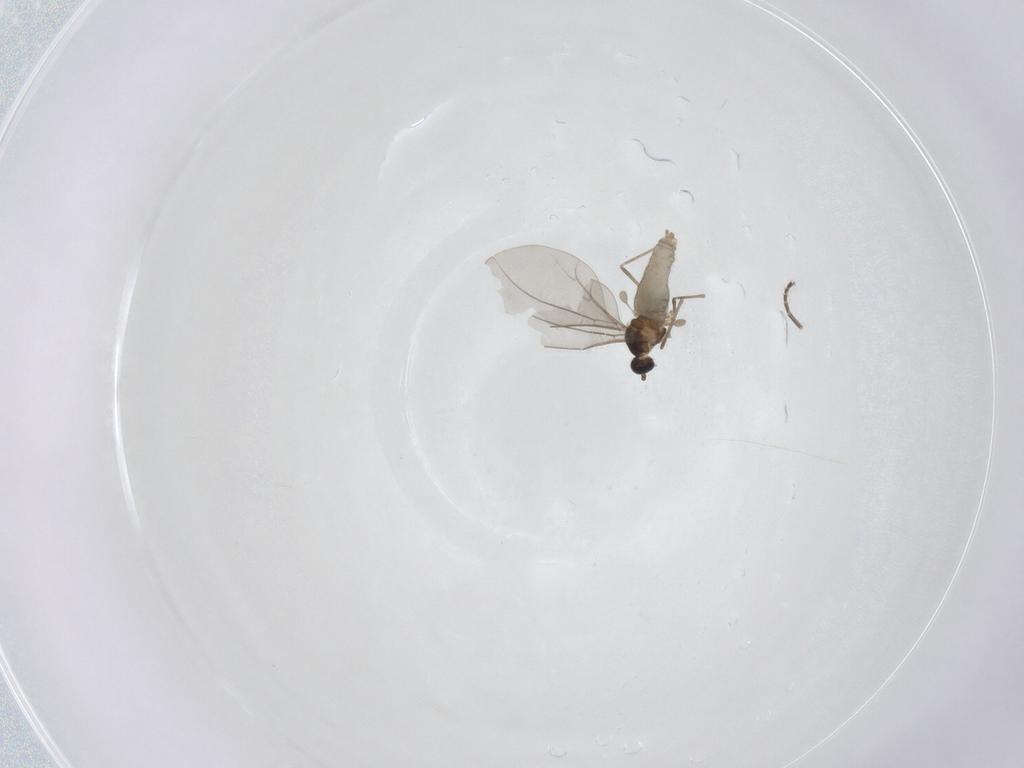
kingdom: Animalia
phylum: Arthropoda
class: Insecta
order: Diptera
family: Cecidomyiidae
